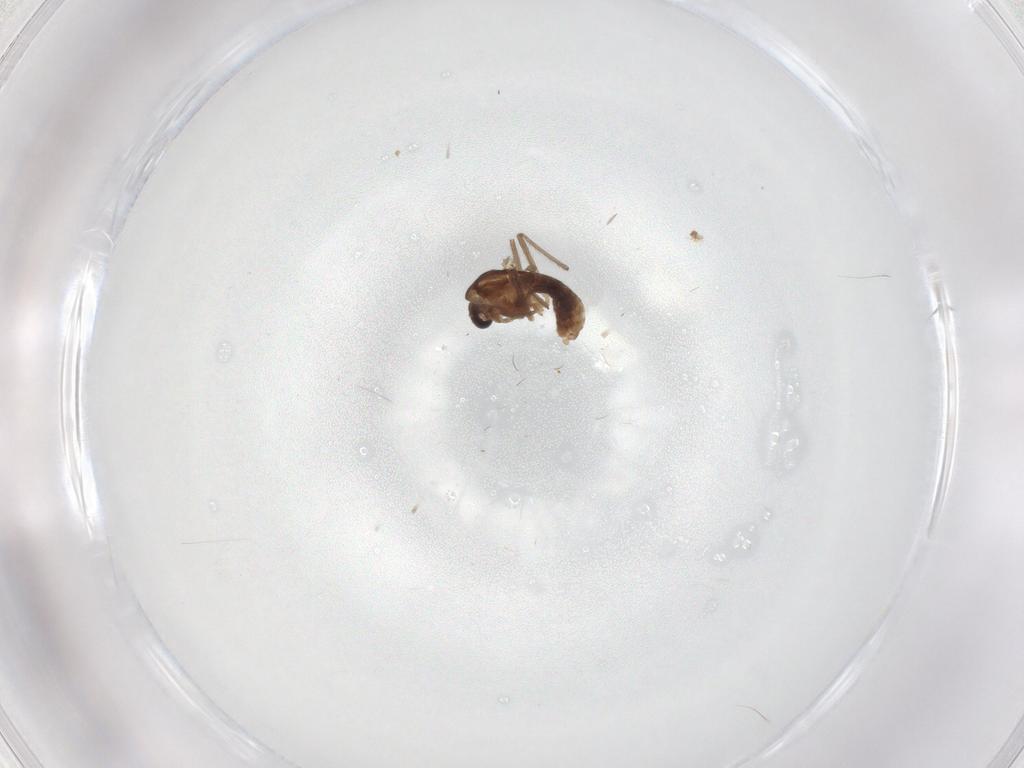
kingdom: Animalia
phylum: Arthropoda
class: Insecta
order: Diptera
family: Chironomidae
